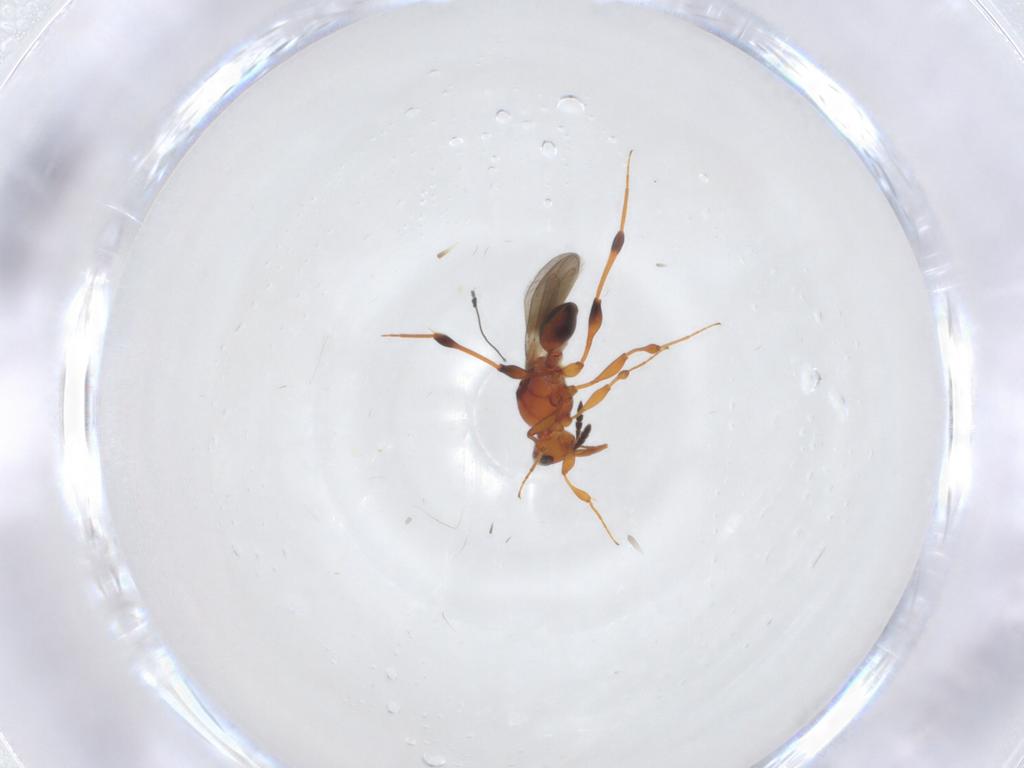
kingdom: Animalia
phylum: Arthropoda
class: Insecta
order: Hymenoptera
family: Platygastridae
